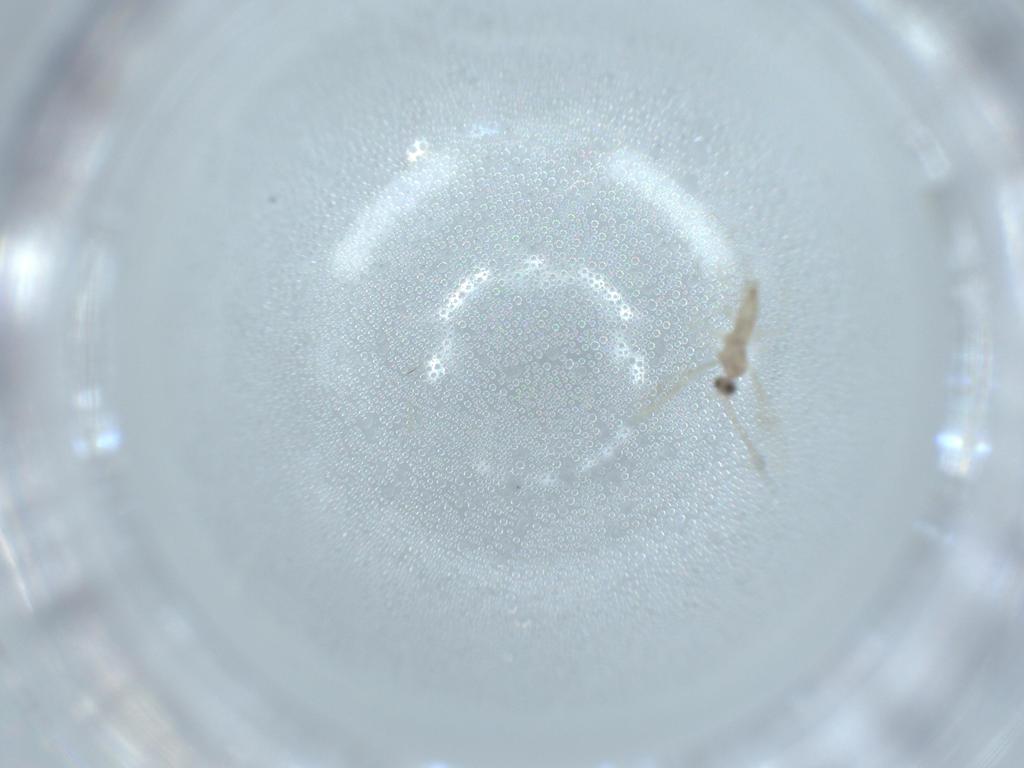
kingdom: Animalia
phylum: Arthropoda
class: Insecta
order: Diptera
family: Cecidomyiidae
